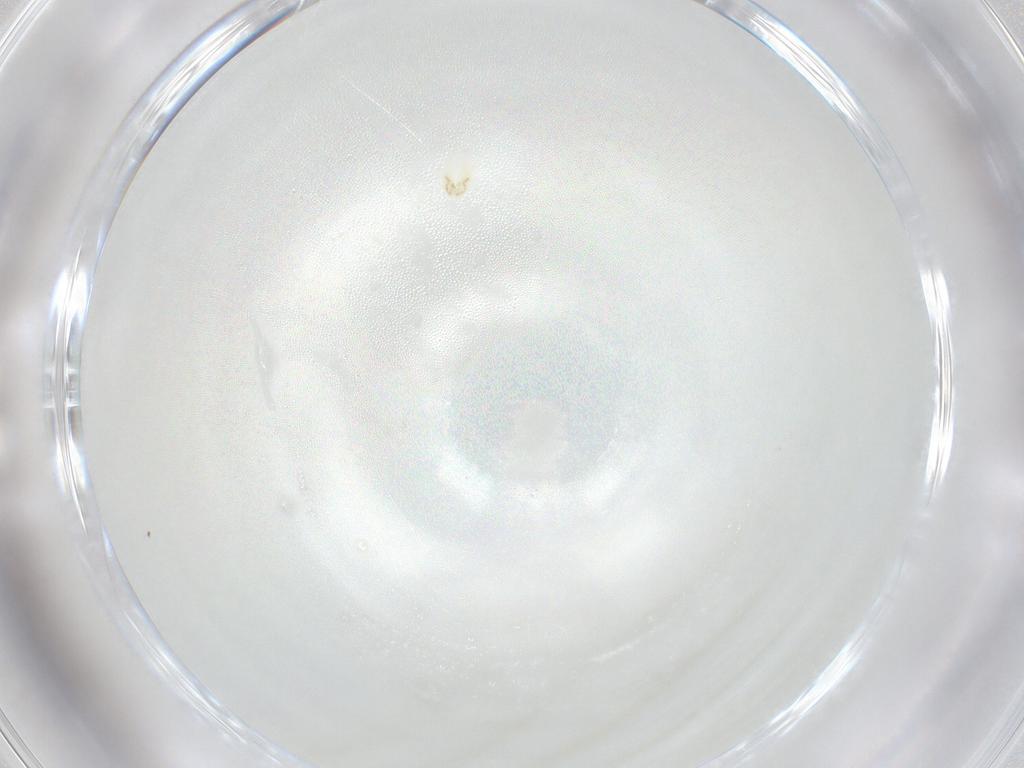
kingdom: Animalia
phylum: Arthropoda
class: Insecta
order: Hymenoptera
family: Scelionidae
